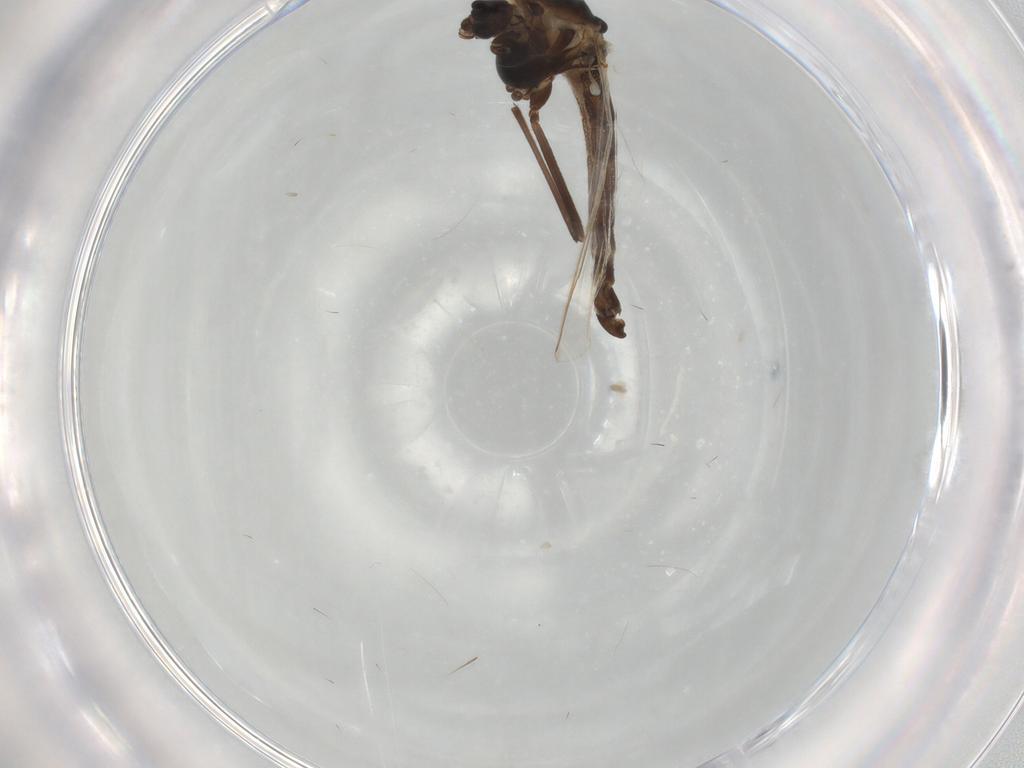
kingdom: Animalia
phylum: Arthropoda
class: Insecta
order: Diptera
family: Chironomidae
